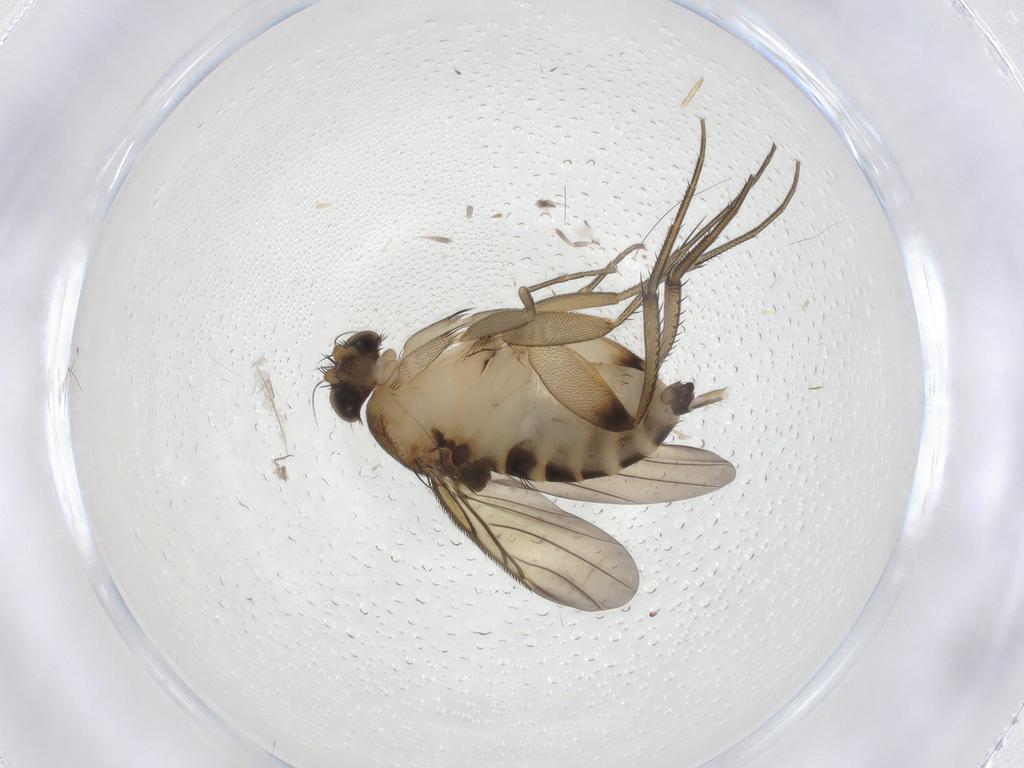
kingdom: Animalia
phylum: Arthropoda
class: Insecta
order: Diptera
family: Phoridae
